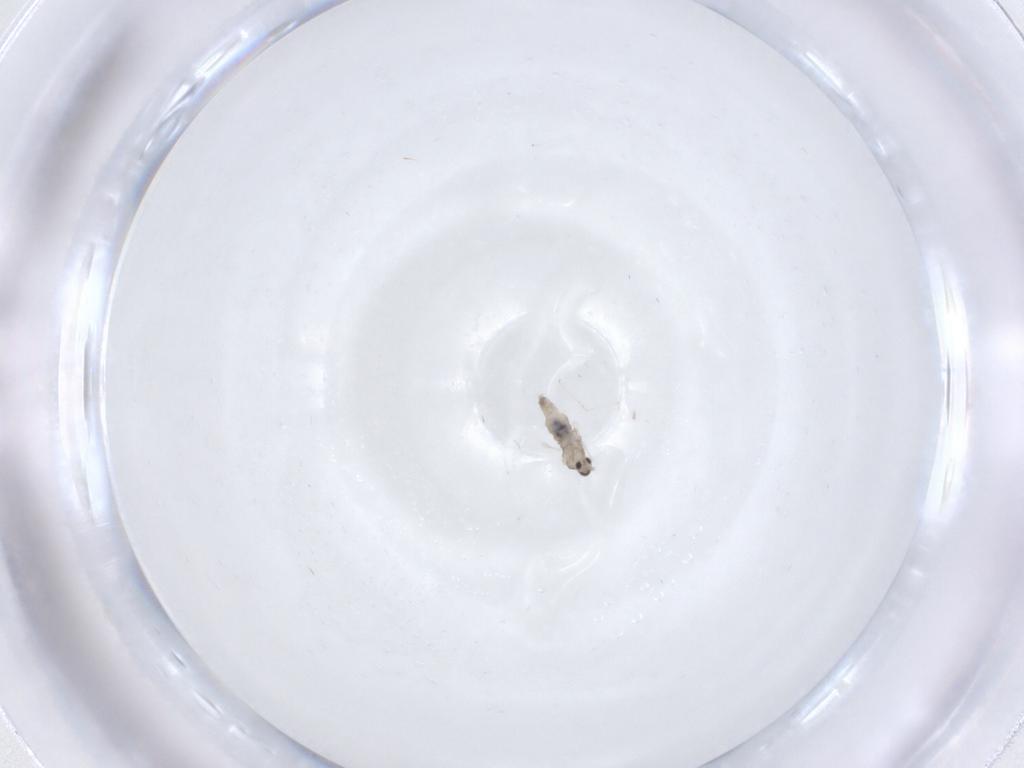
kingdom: Animalia
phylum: Arthropoda
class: Insecta
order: Diptera
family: Cecidomyiidae
